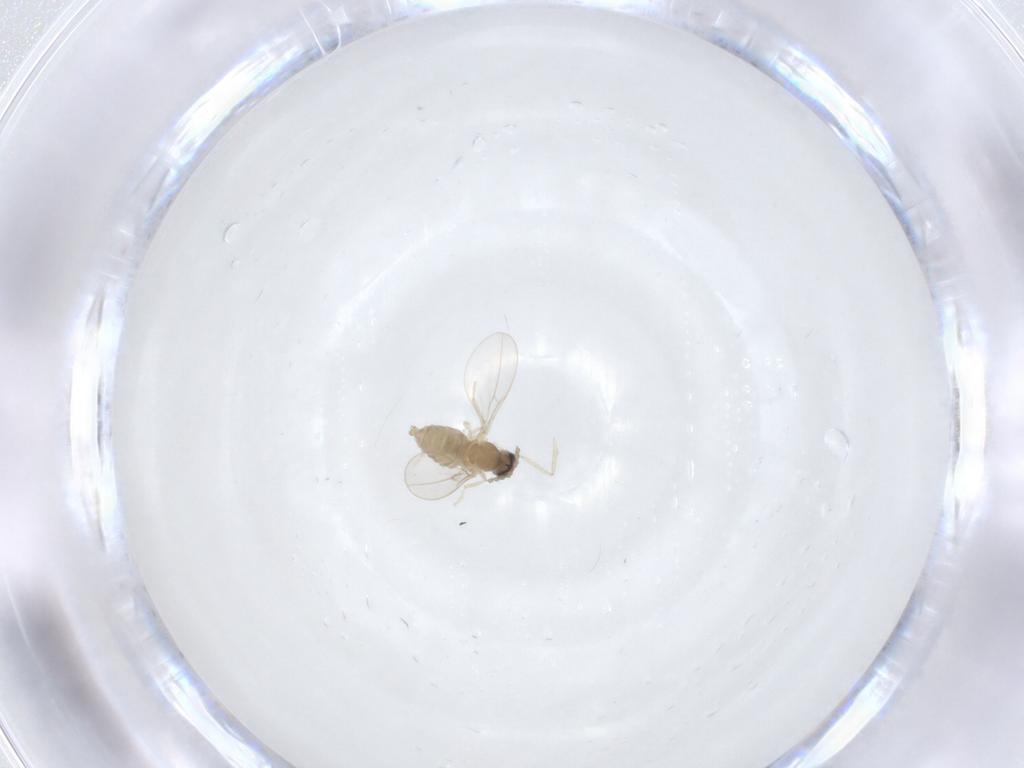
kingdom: Animalia
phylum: Arthropoda
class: Insecta
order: Diptera
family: Cecidomyiidae
